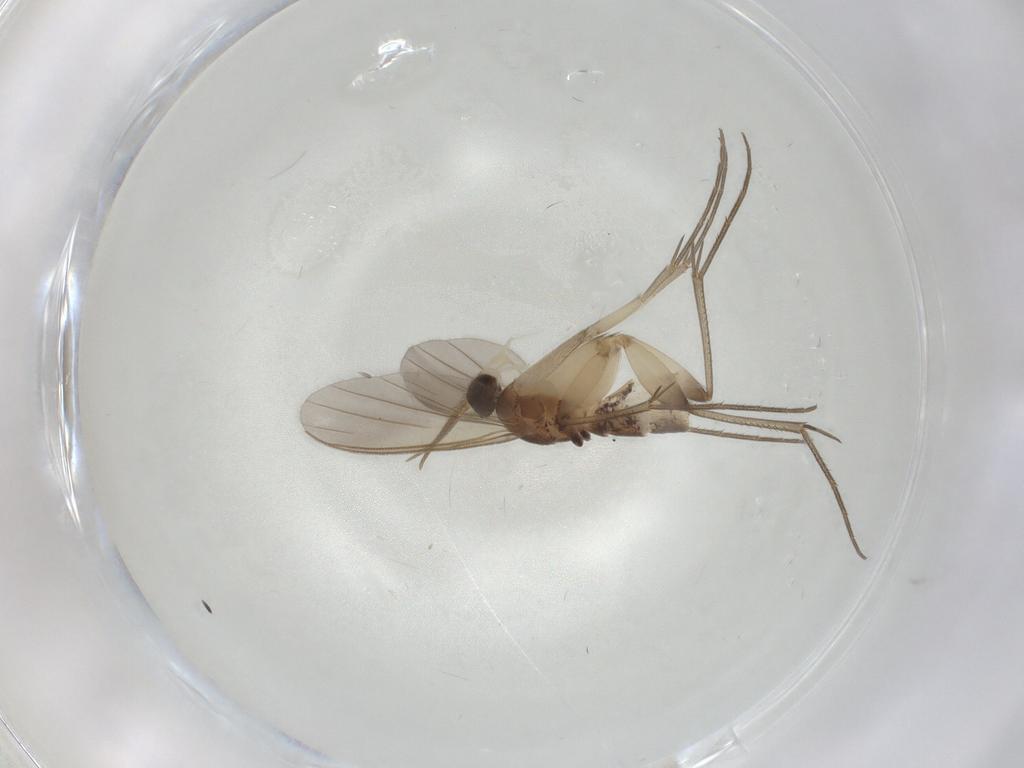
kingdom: Animalia
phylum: Arthropoda
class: Insecta
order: Diptera
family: Mycetophilidae
